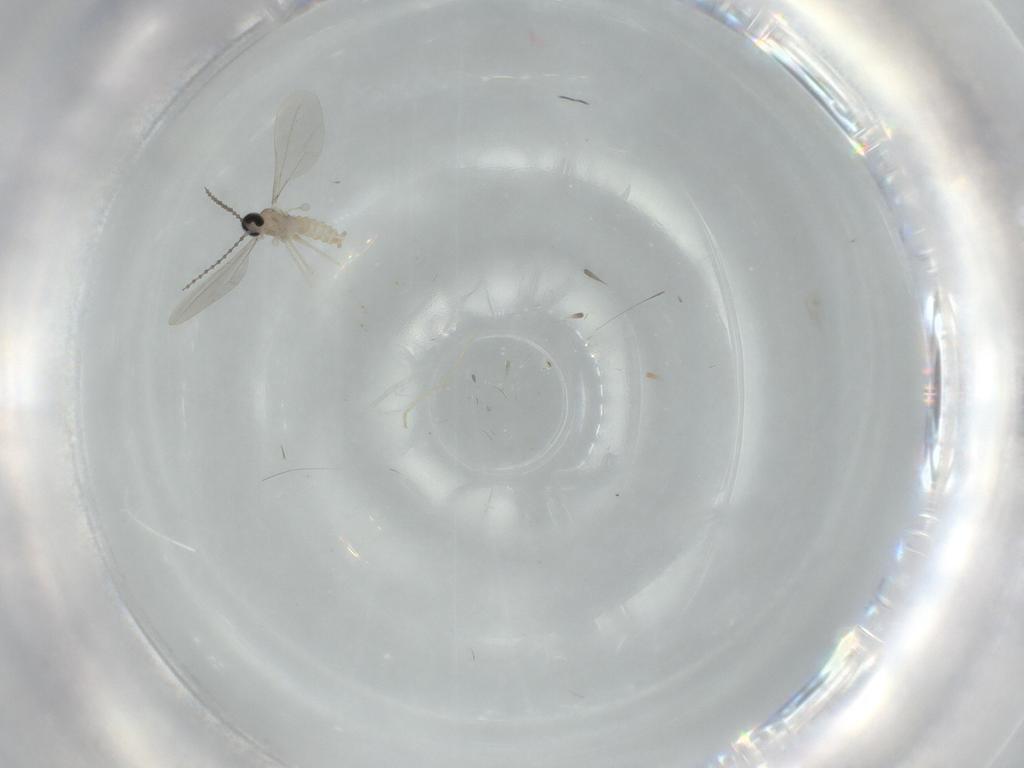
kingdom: Animalia
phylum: Arthropoda
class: Insecta
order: Diptera
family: Cecidomyiidae
